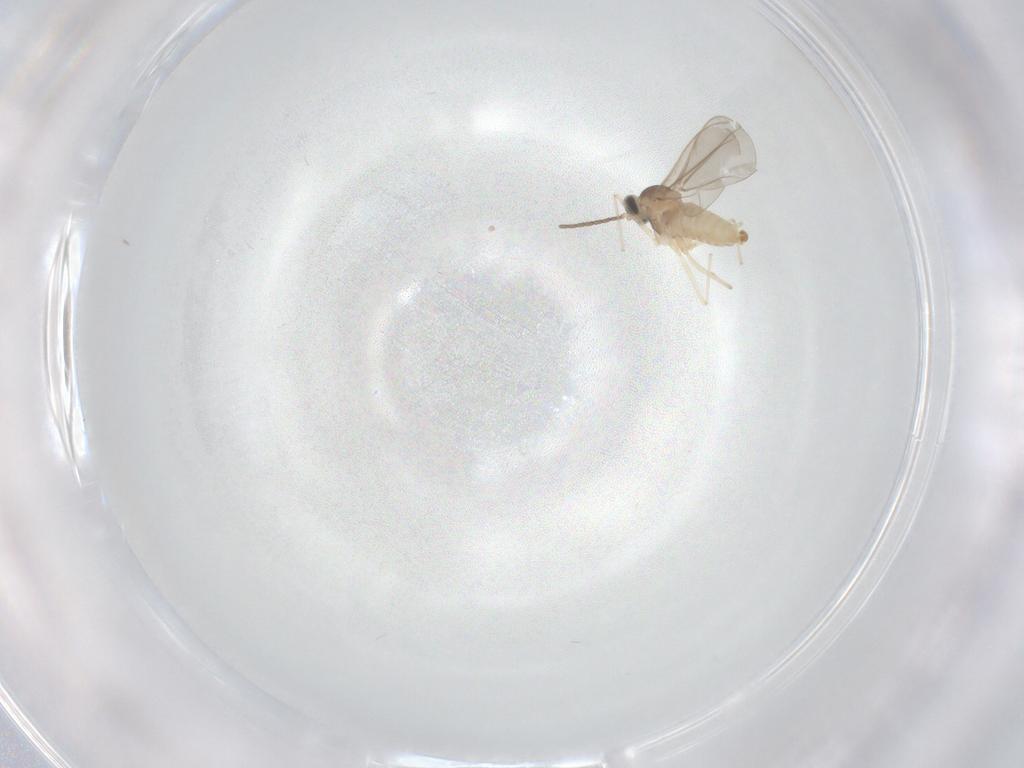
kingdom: Animalia
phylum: Arthropoda
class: Insecta
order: Diptera
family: Cecidomyiidae
